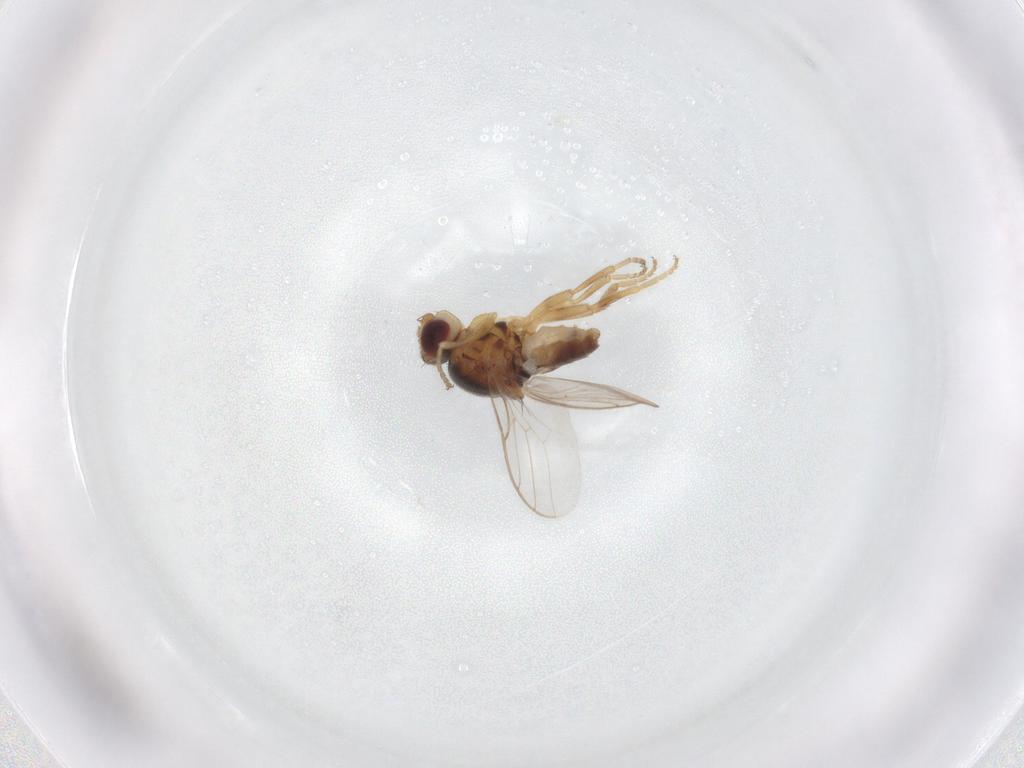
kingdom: Animalia
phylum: Arthropoda
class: Insecta
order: Diptera
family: Chloropidae
